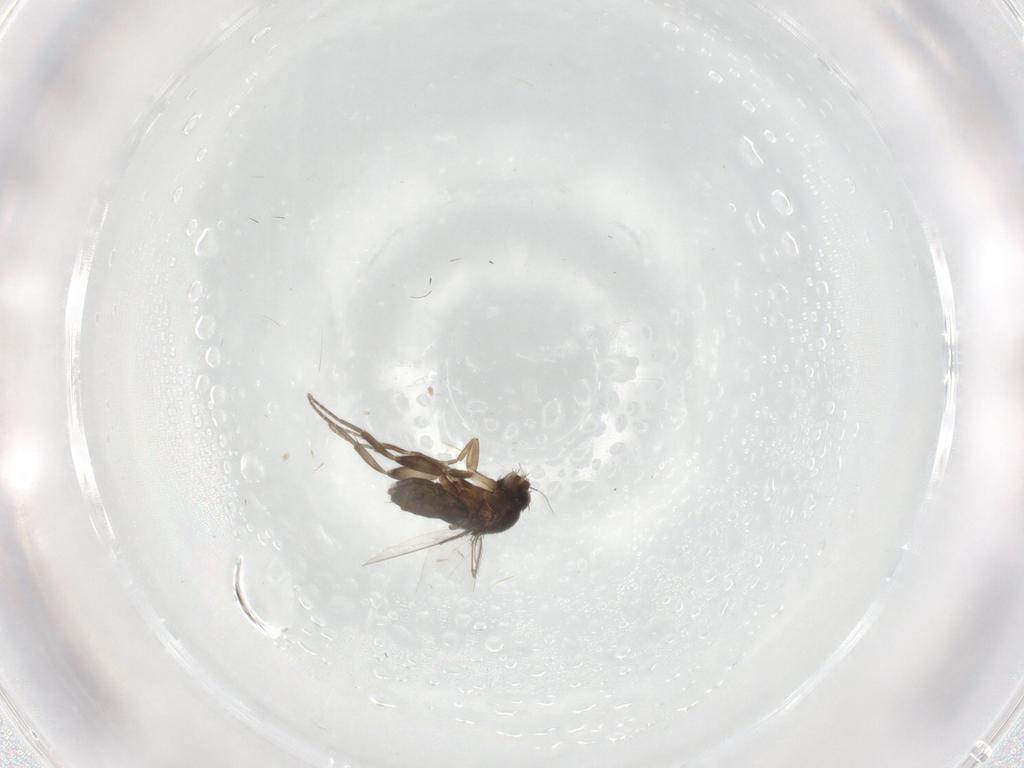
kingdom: Animalia
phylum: Arthropoda
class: Insecta
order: Diptera
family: Phoridae
